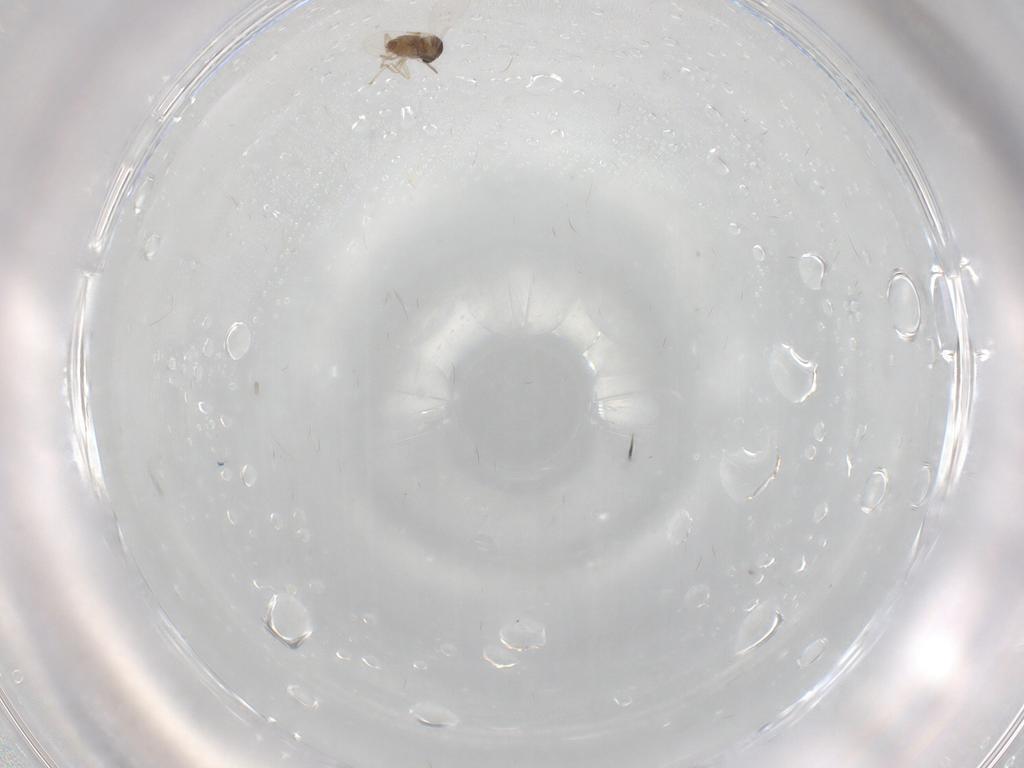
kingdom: Animalia
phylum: Arthropoda
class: Insecta
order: Diptera
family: Cecidomyiidae
